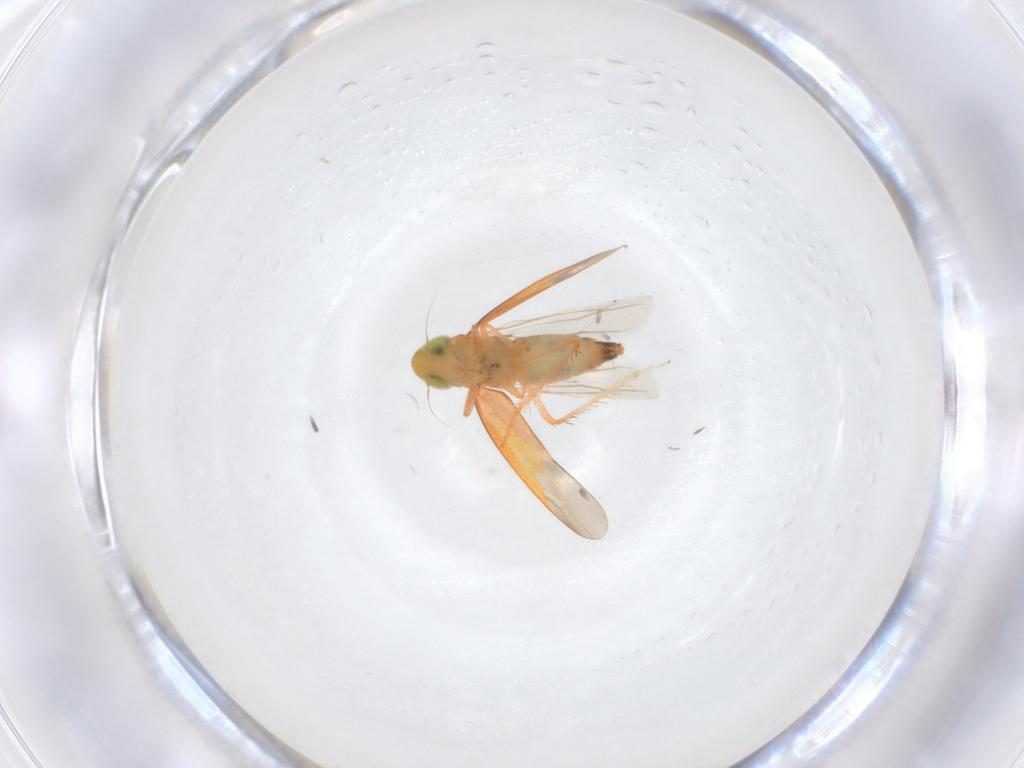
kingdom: Animalia
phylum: Arthropoda
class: Insecta
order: Hemiptera
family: Cicadellidae
